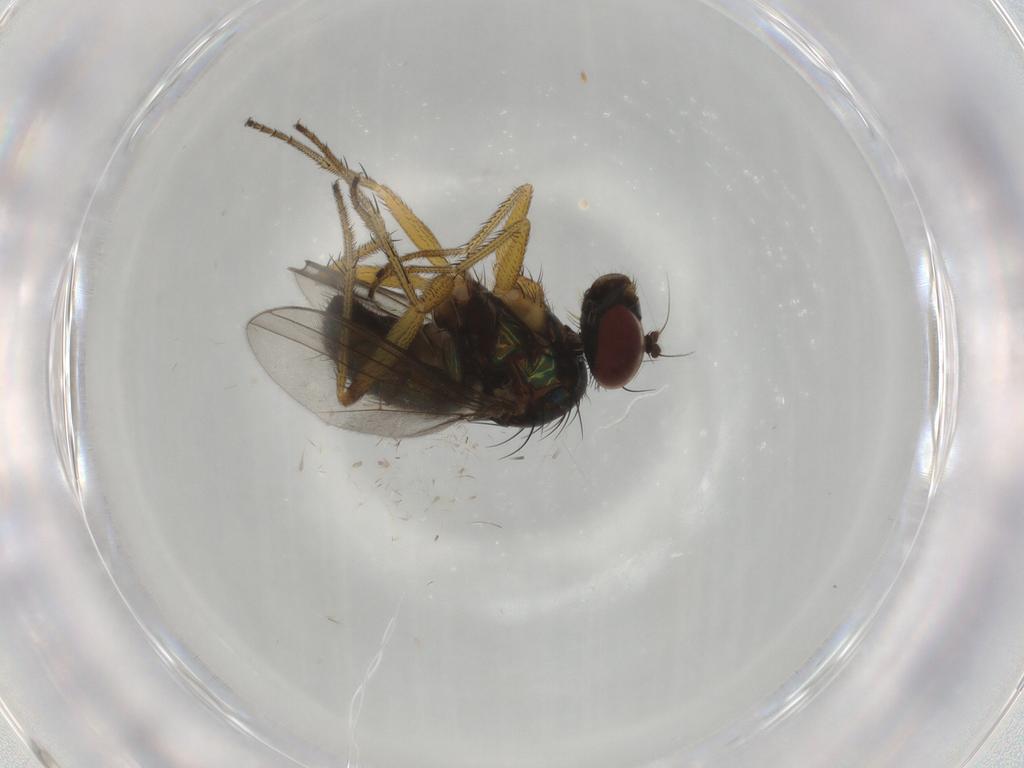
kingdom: Animalia
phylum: Arthropoda
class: Insecta
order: Diptera
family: Dolichopodidae
